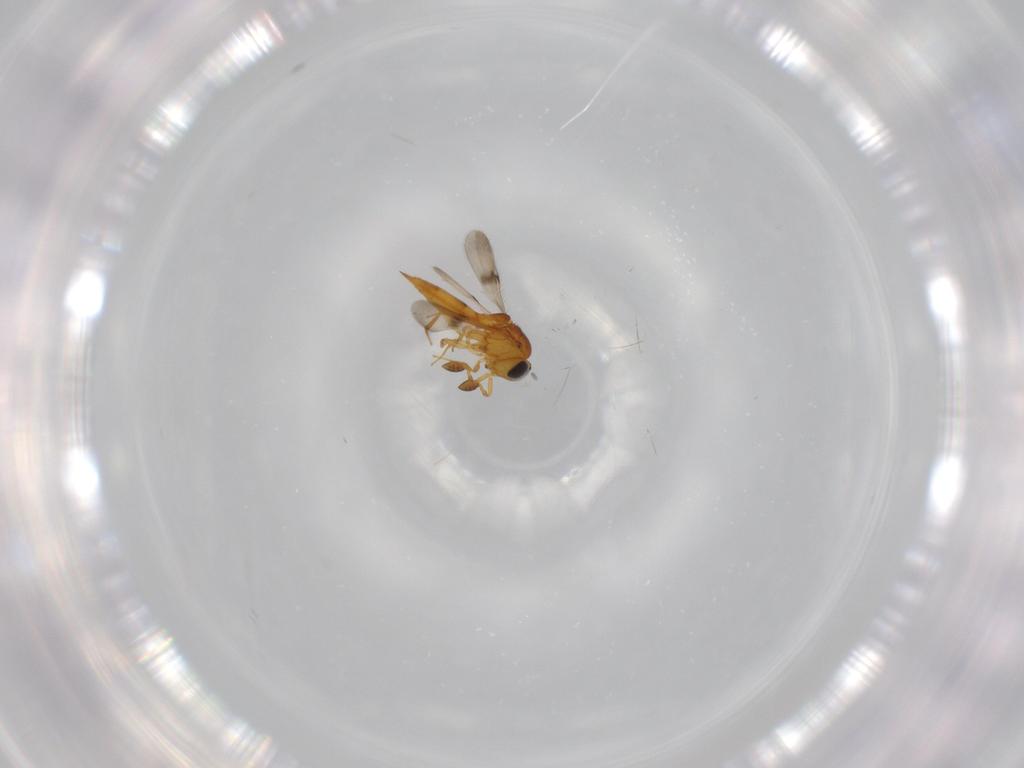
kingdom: Animalia
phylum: Arthropoda
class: Insecta
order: Hymenoptera
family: Scelionidae
